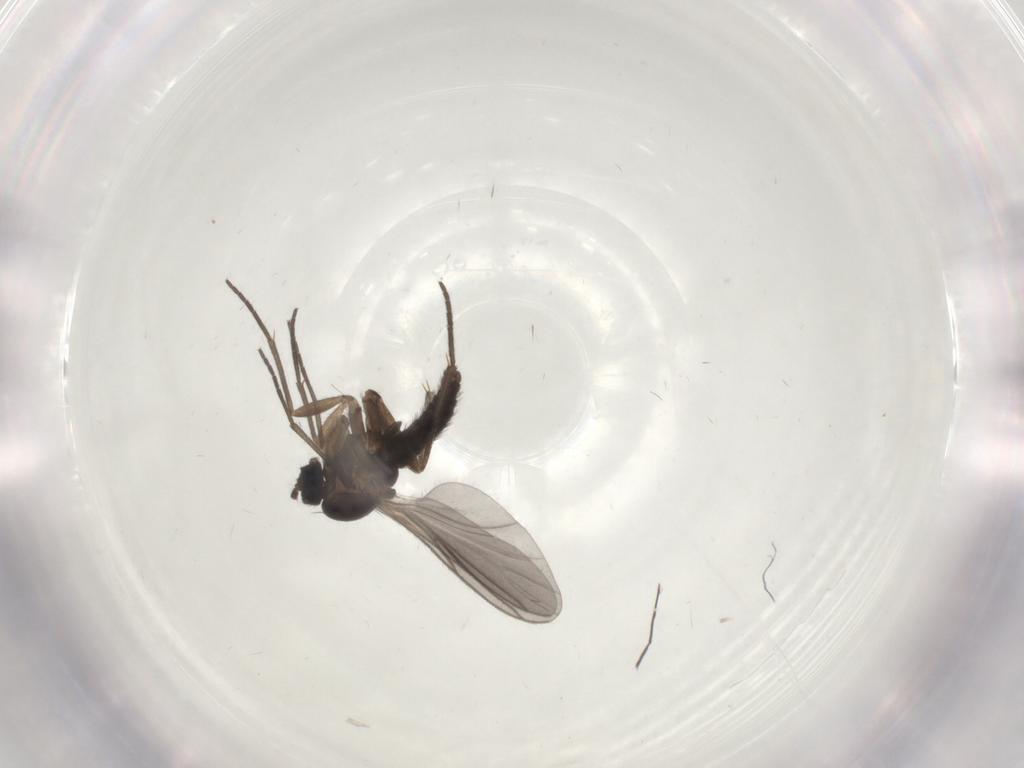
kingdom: Animalia
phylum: Arthropoda
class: Insecta
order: Diptera
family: Sciaridae
